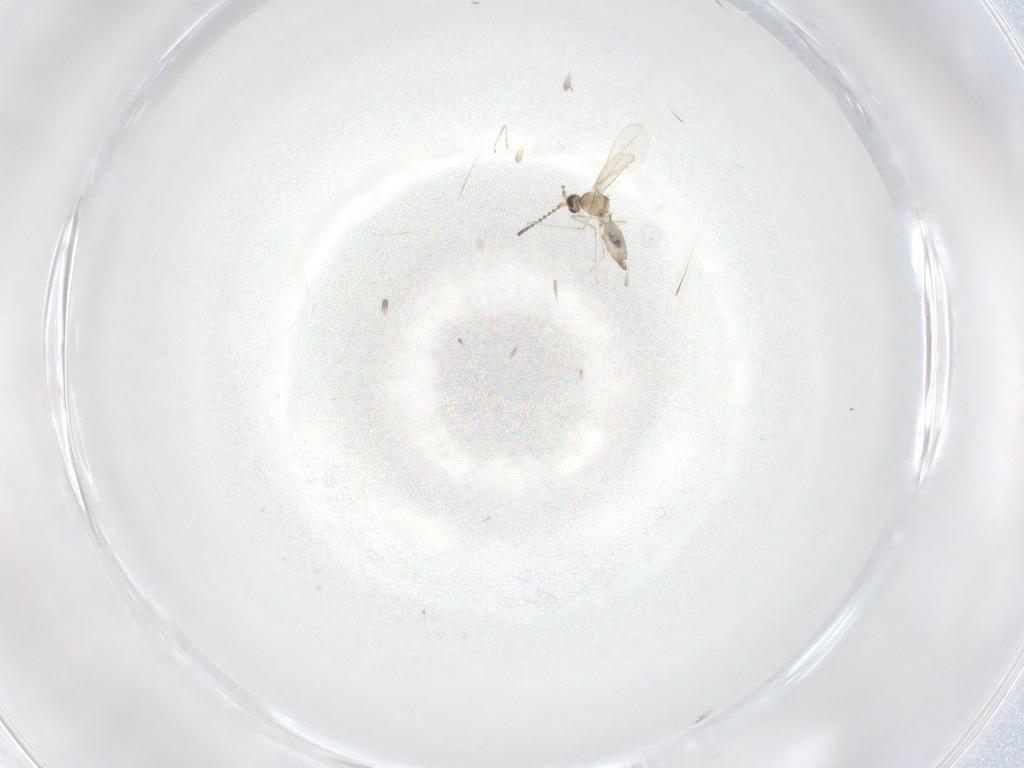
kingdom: Animalia
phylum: Arthropoda
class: Insecta
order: Diptera
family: Cecidomyiidae
